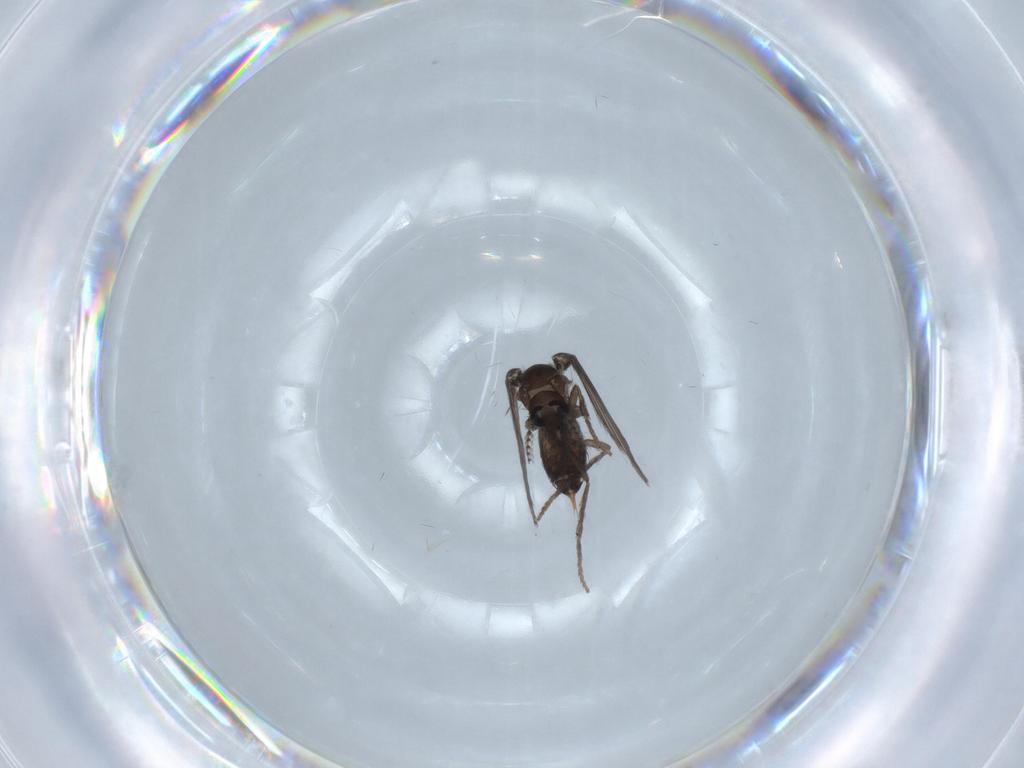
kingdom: Animalia
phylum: Arthropoda
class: Insecta
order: Diptera
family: Psychodidae
